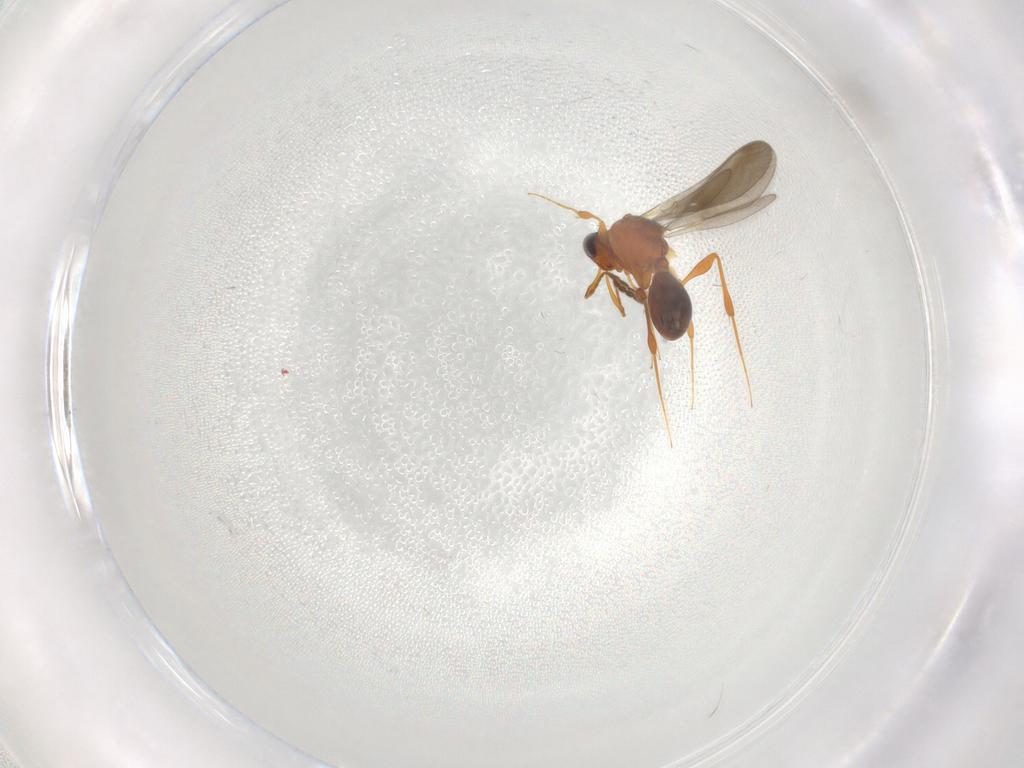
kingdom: Animalia
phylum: Arthropoda
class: Insecta
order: Hymenoptera
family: Platygastridae
